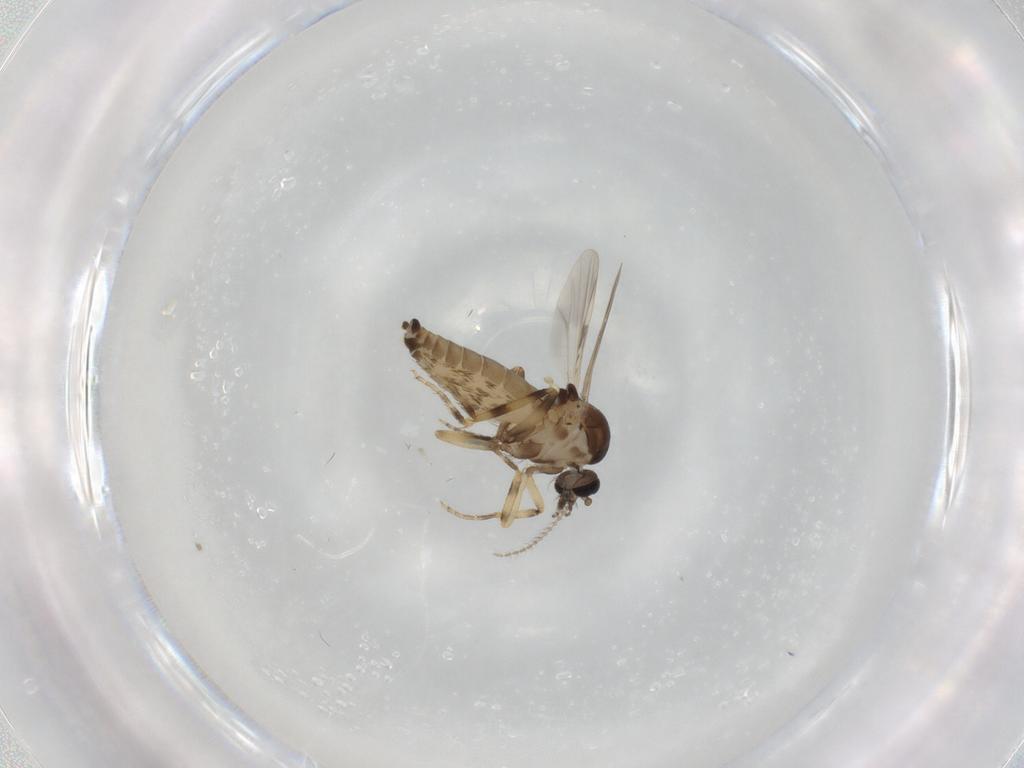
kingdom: Animalia
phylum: Arthropoda
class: Insecta
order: Diptera
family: Ceratopogonidae
